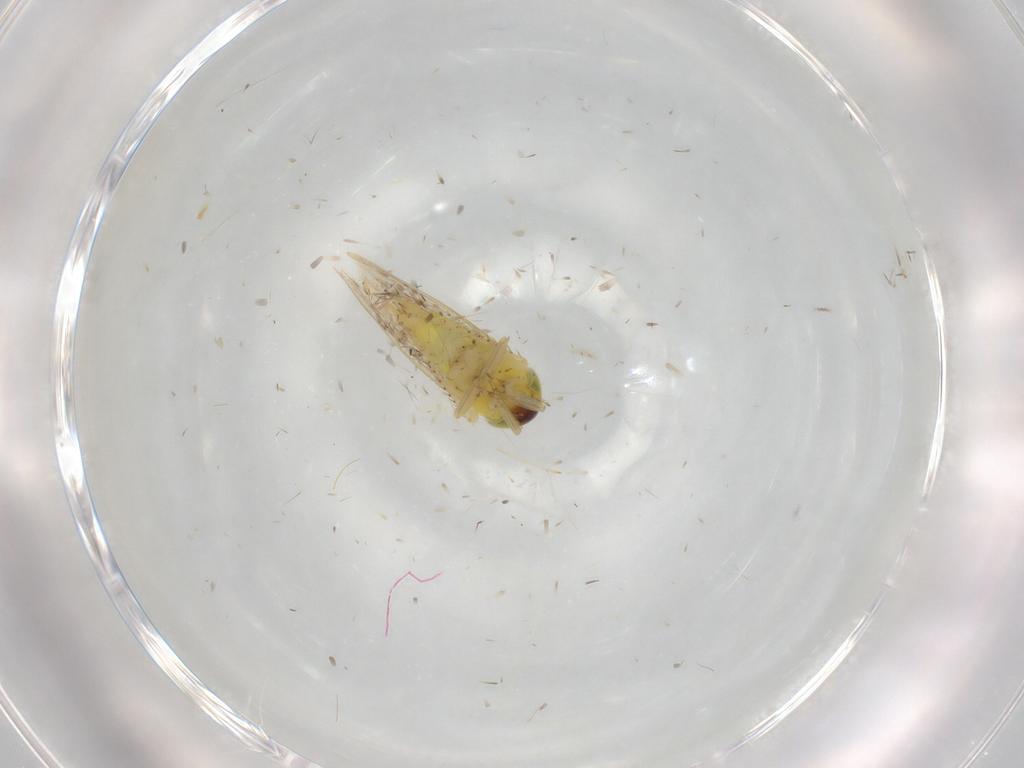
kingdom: Animalia
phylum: Arthropoda
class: Insecta
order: Hemiptera
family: Cicadellidae
